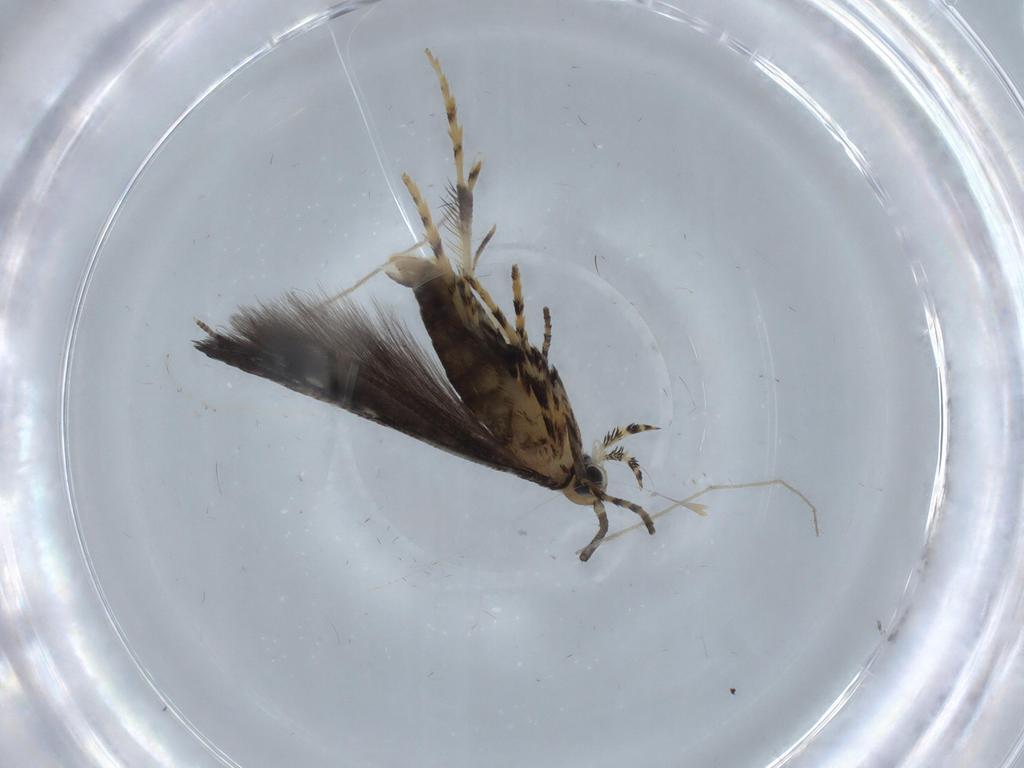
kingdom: Animalia
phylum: Arthropoda
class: Insecta
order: Lepidoptera
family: Gracillariidae
